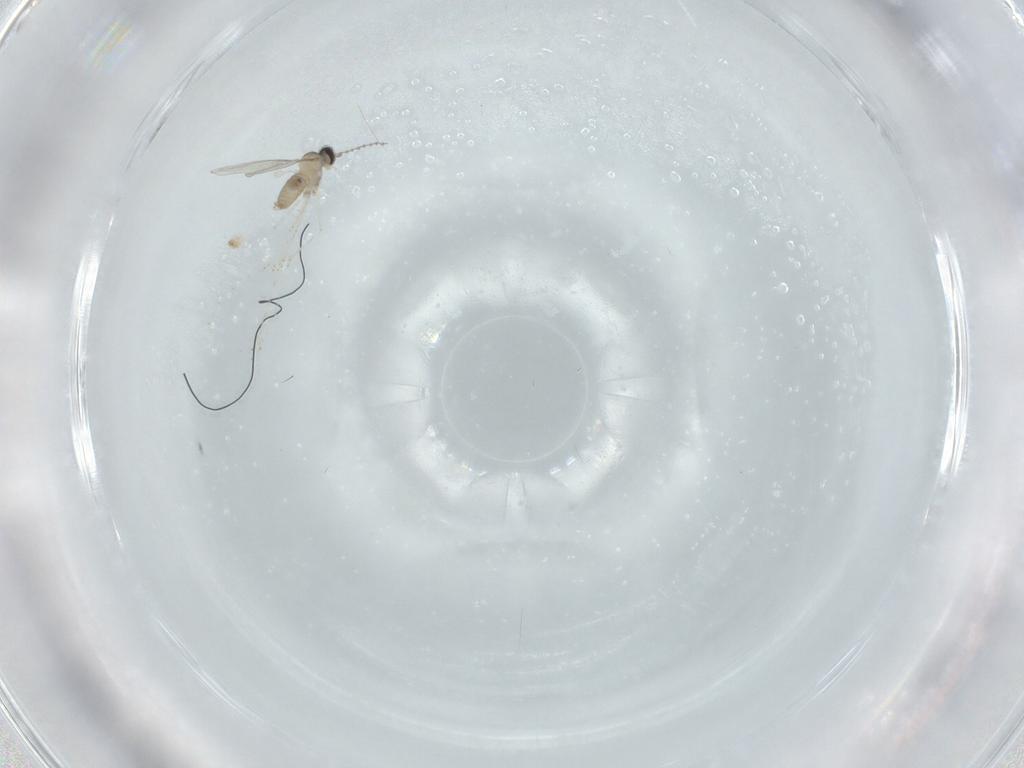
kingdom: Animalia
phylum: Arthropoda
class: Insecta
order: Diptera
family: Cecidomyiidae
